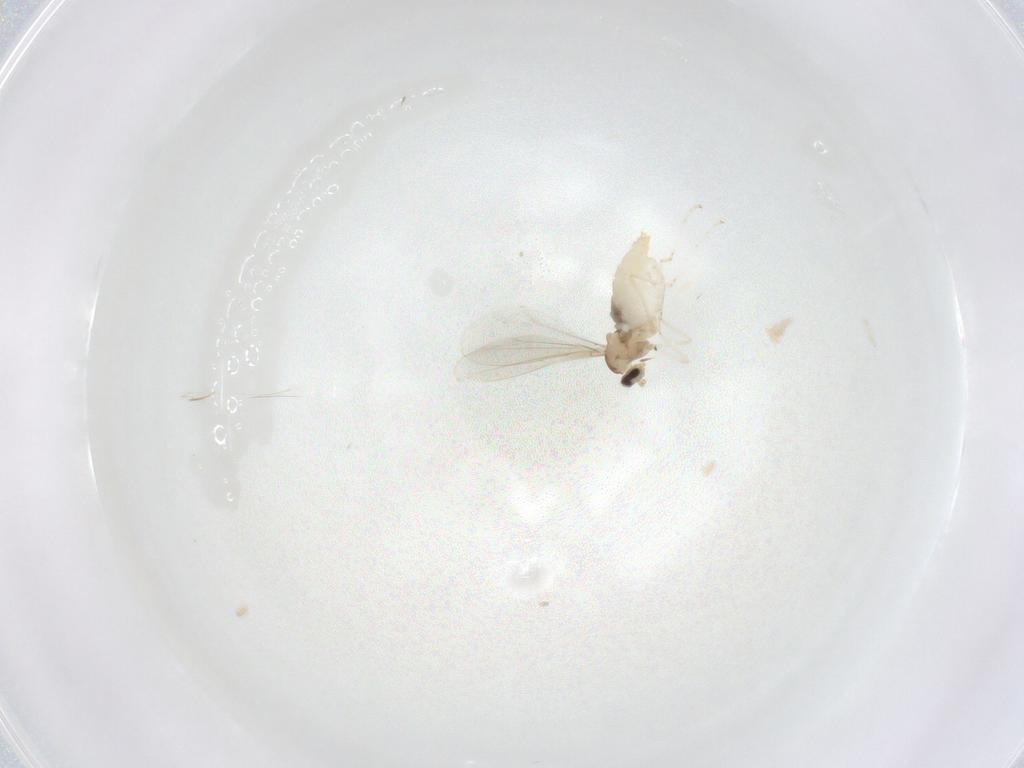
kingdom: Animalia
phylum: Arthropoda
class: Insecta
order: Diptera
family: Cecidomyiidae
